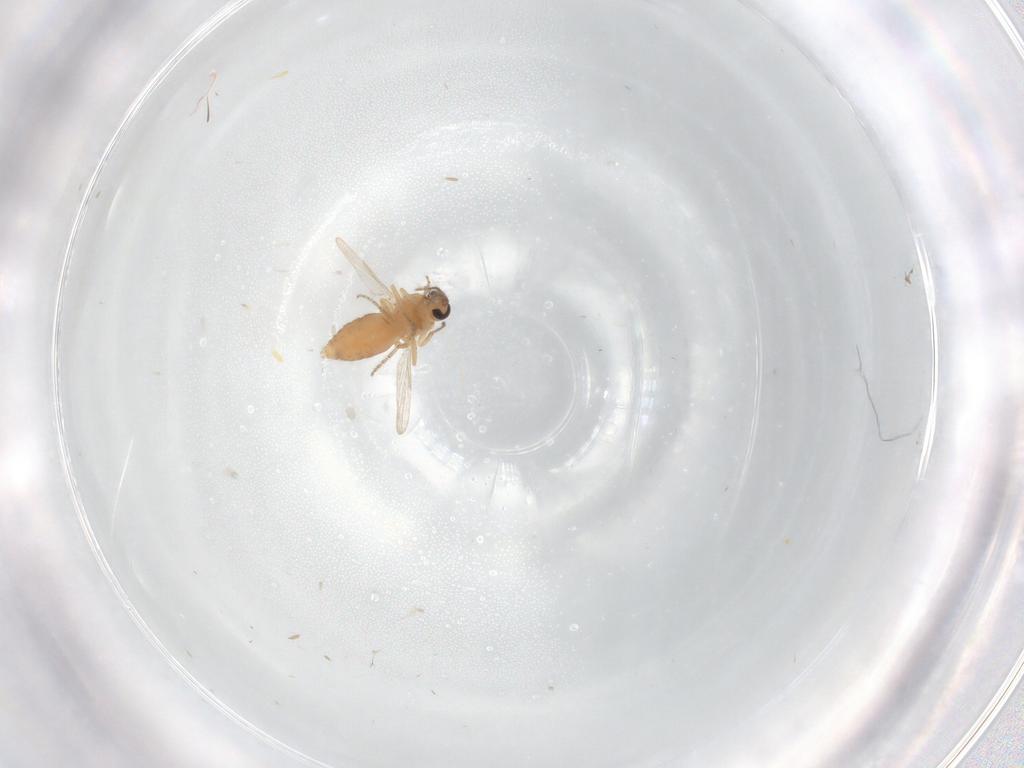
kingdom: Animalia
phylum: Arthropoda
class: Insecta
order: Diptera
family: Ceratopogonidae
